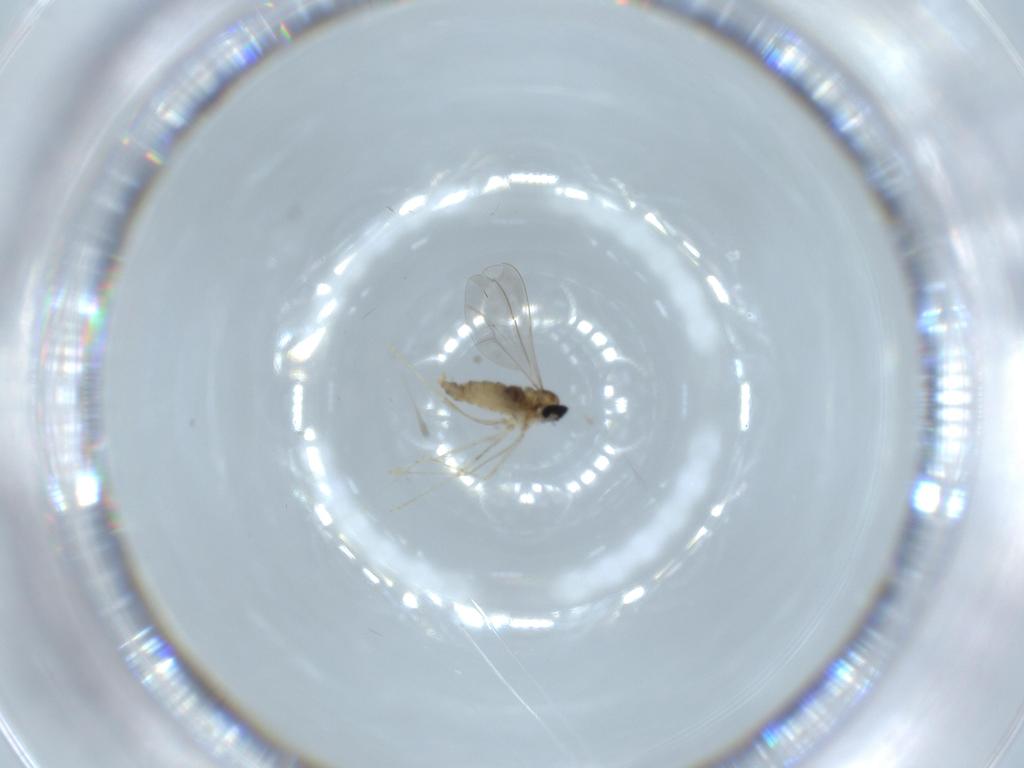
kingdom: Animalia
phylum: Arthropoda
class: Insecta
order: Diptera
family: Cecidomyiidae
